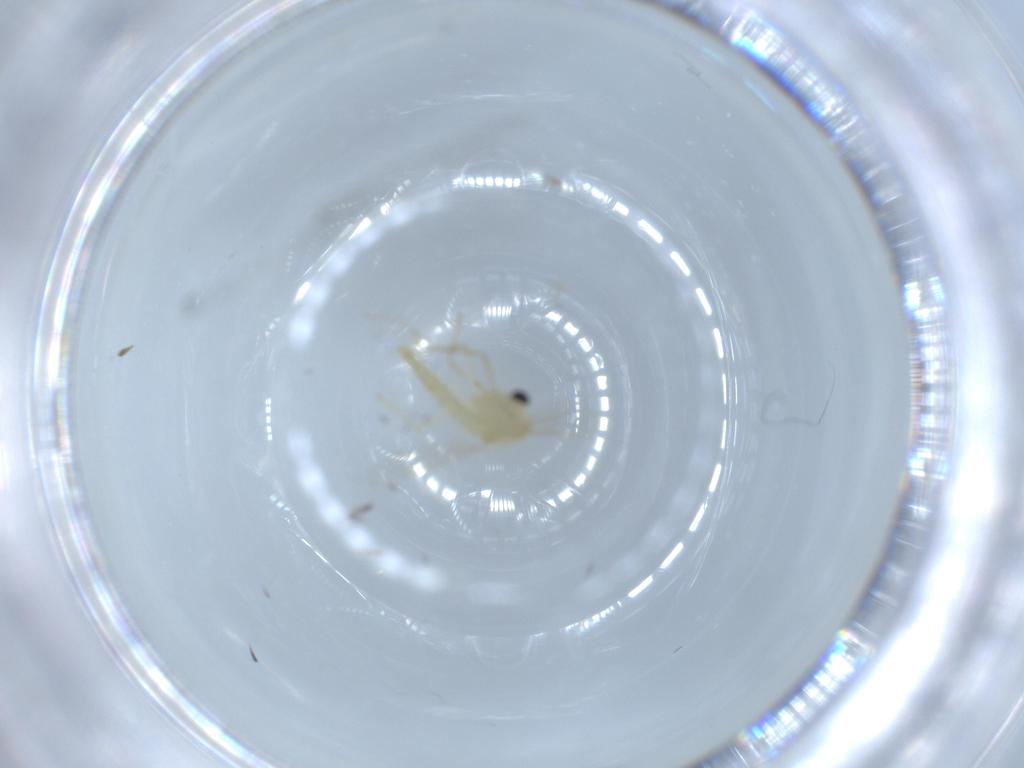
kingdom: Animalia
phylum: Arthropoda
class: Insecta
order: Diptera
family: Chironomidae
